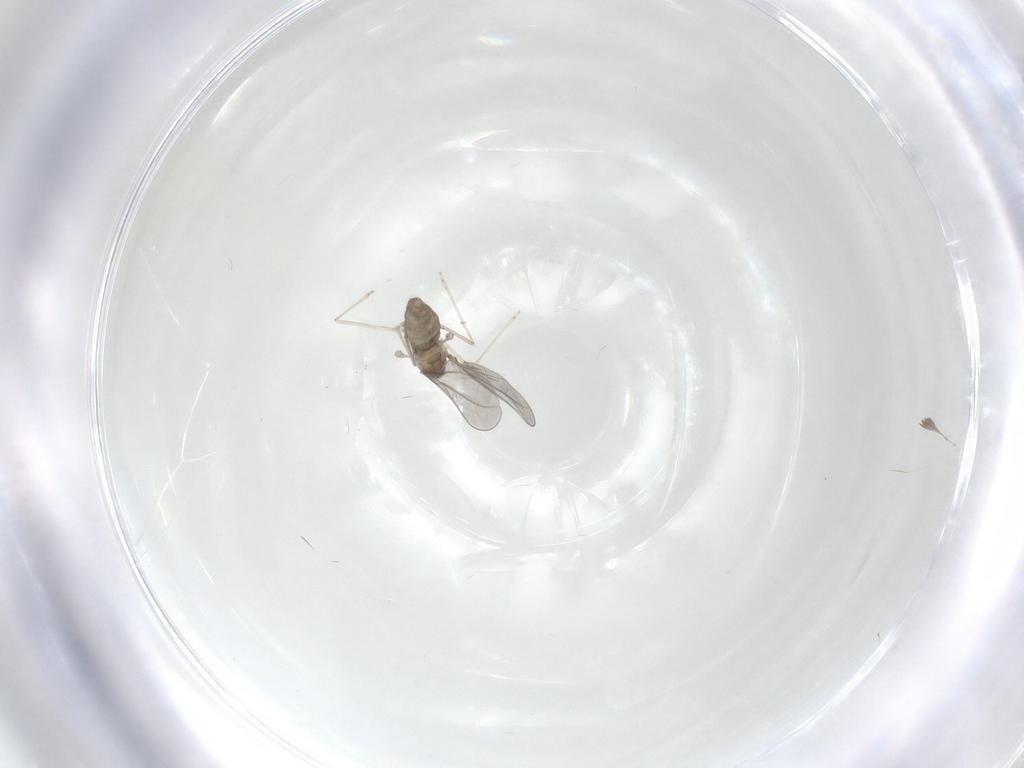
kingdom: Animalia
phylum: Arthropoda
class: Insecta
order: Diptera
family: Cecidomyiidae
